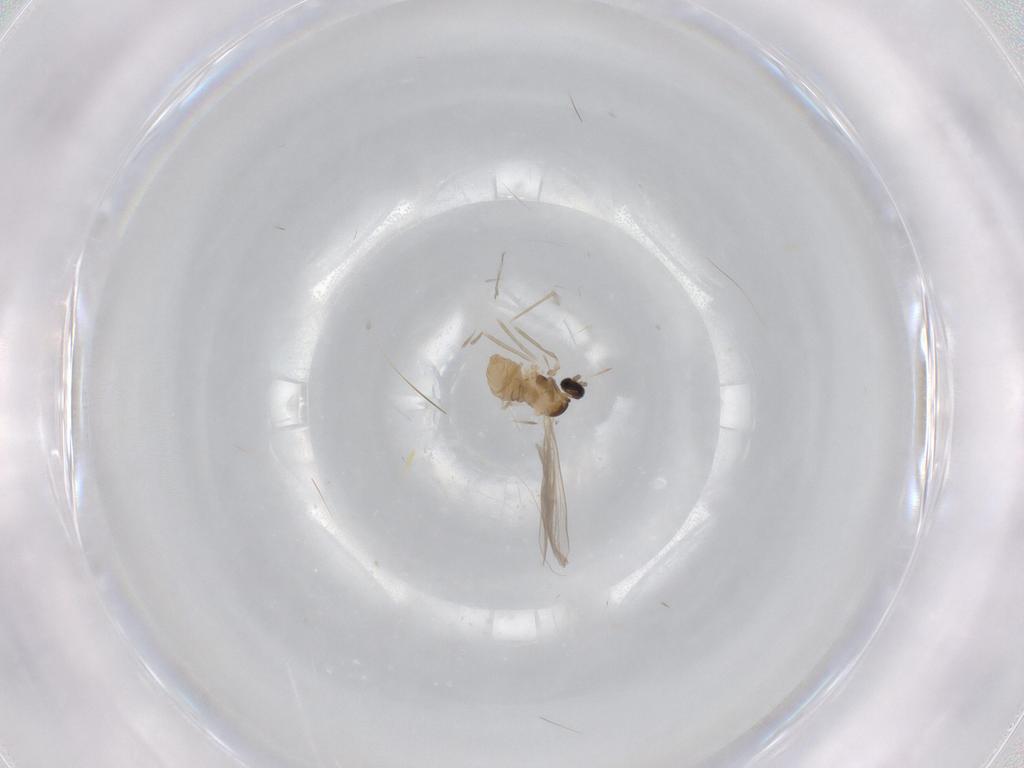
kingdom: Animalia
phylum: Arthropoda
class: Insecta
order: Diptera
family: Cecidomyiidae
